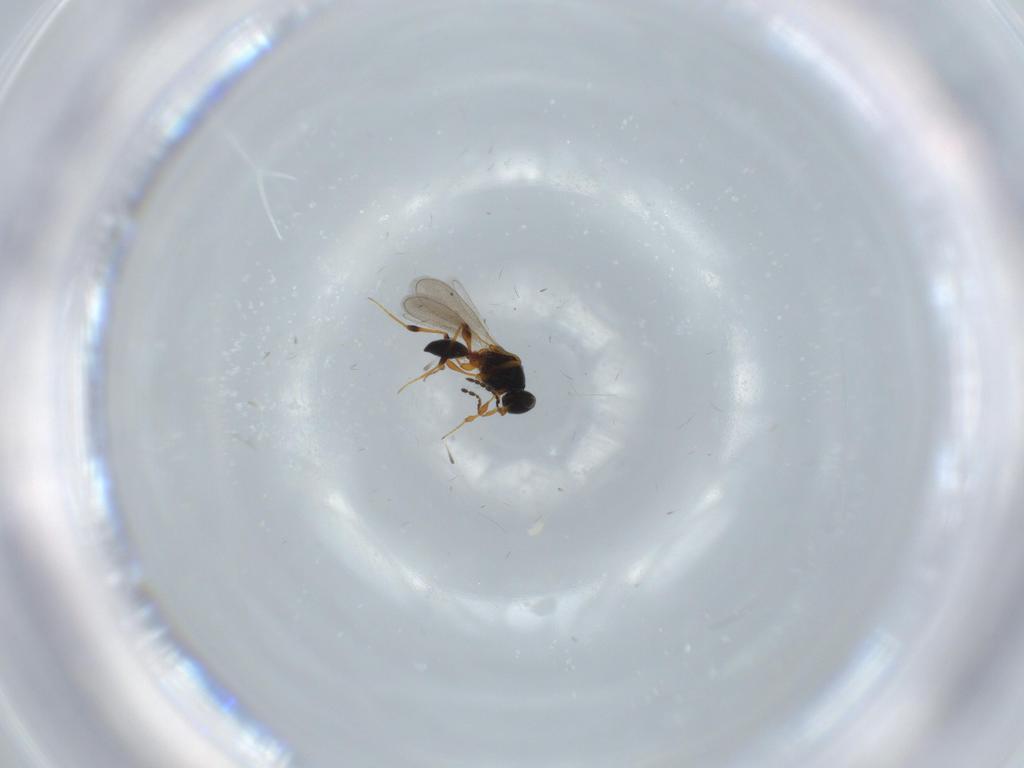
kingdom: Animalia
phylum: Arthropoda
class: Insecta
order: Hymenoptera
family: Platygastridae
